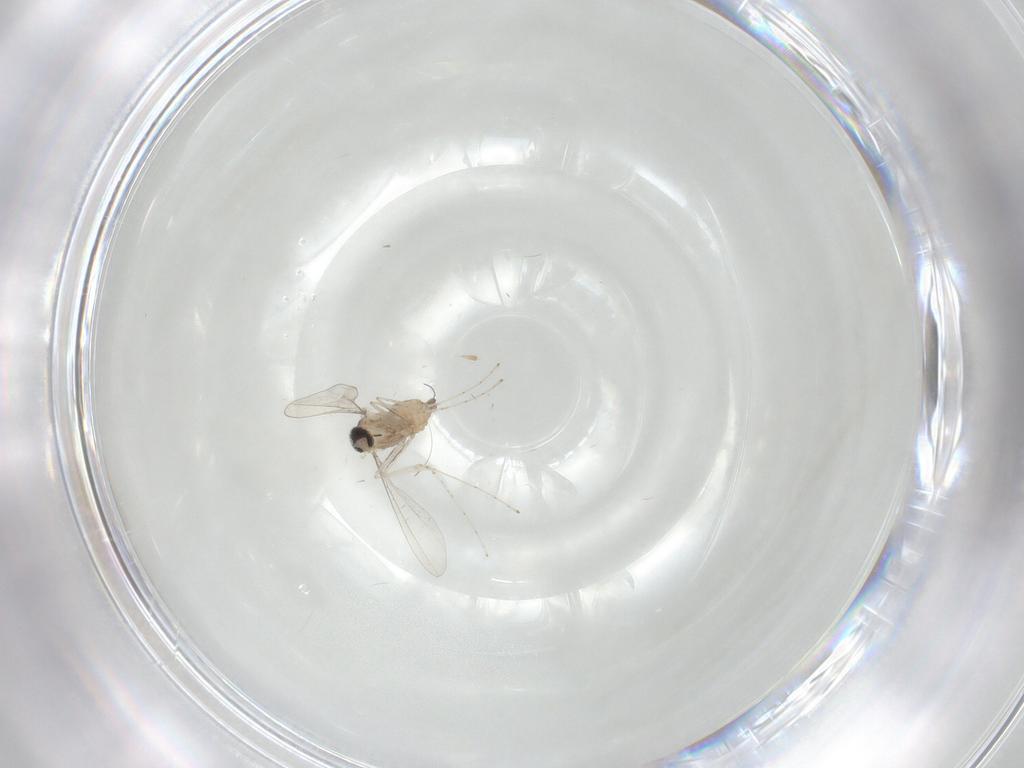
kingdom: Animalia
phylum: Arthropoda
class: Insecta
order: Diptera
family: Cecidomyiidae
